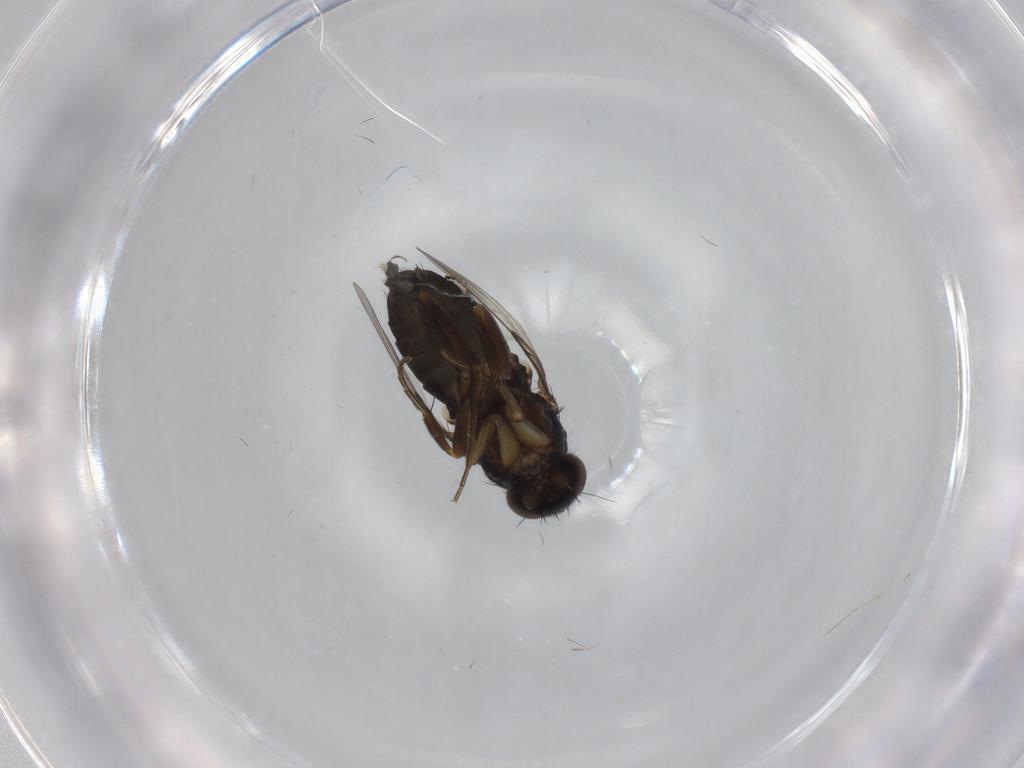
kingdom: Animalia
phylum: Arthropoda
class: Insecta
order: Diptera
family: Phoridae
